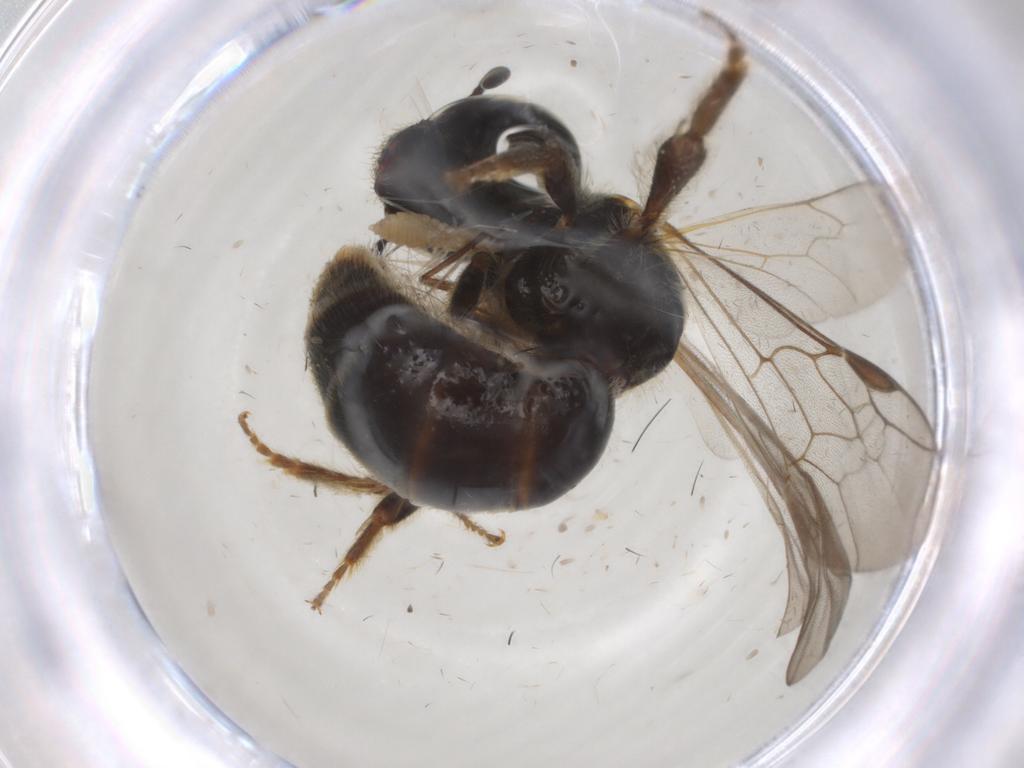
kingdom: Animalia
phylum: Arthropoda
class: Insecta
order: Diptera
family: Sciaridae
